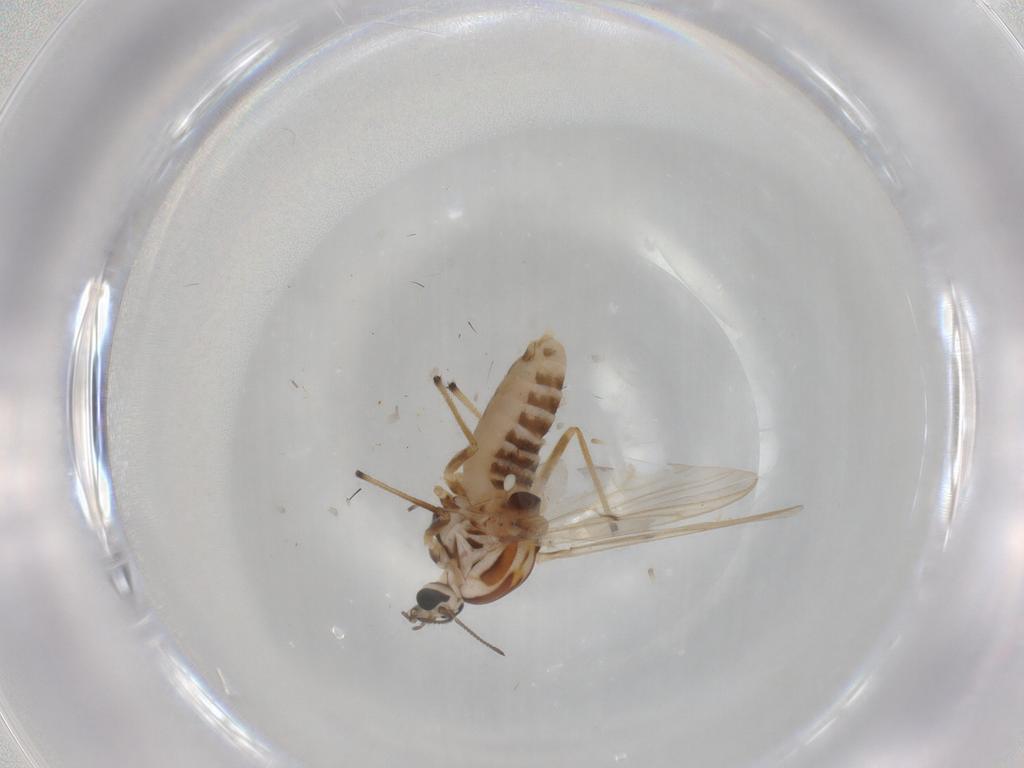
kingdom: Animalia
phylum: Arthropoda
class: Insecta
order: Diptera
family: Chironomidae
